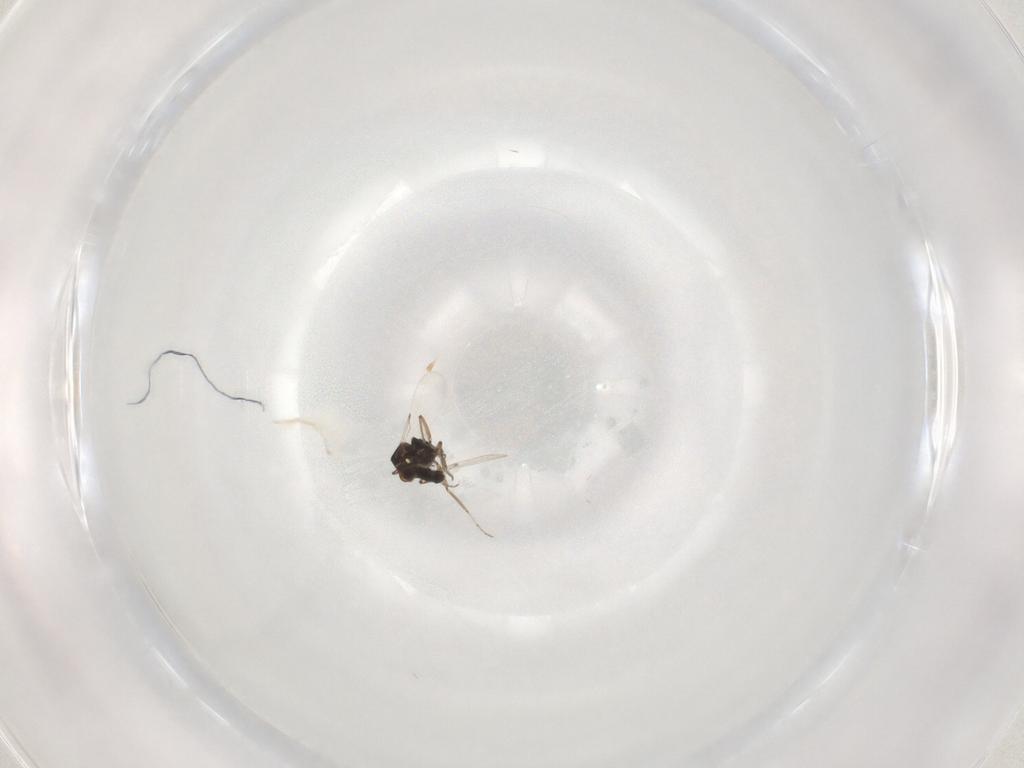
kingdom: Animalia
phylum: Arthropoda
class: Insecta
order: Diptera
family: Ceratopogonidae
